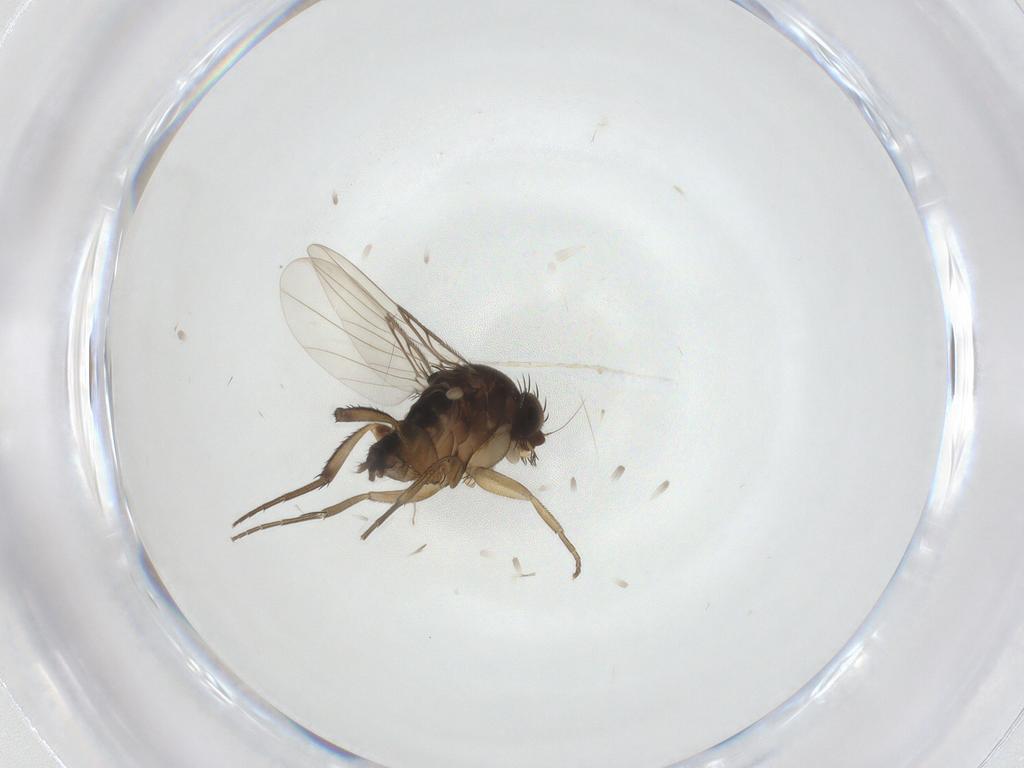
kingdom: Animalia
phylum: Arthropoda
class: Insecta
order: Diptera
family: Phoridae
